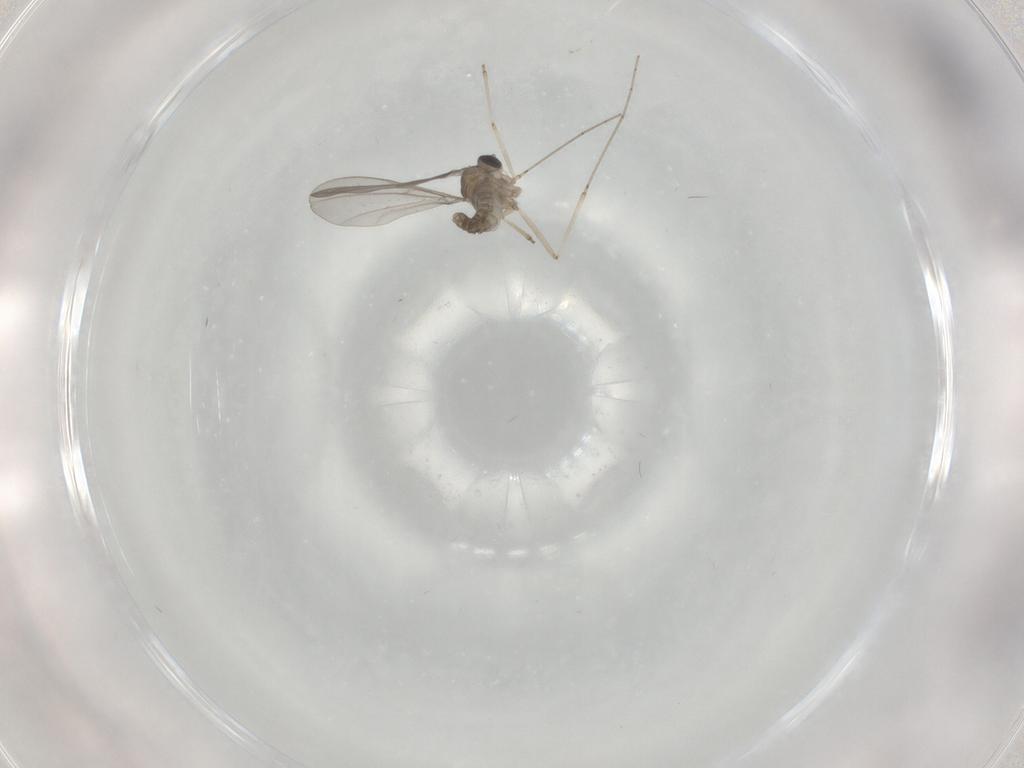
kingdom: Animalia
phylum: Arthropoda
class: Insecta
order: Diptera
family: Cecidomyiidae
